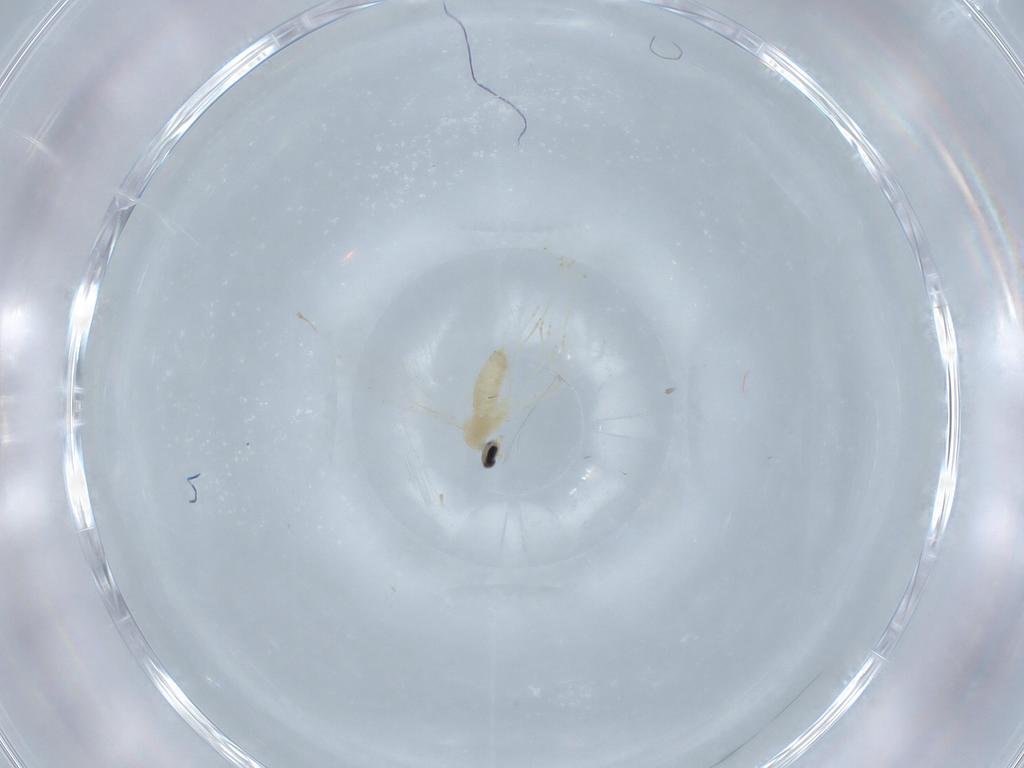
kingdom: Animalia
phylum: Arthropoda
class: Insecta
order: Diptera
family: Cecidomyiidae
